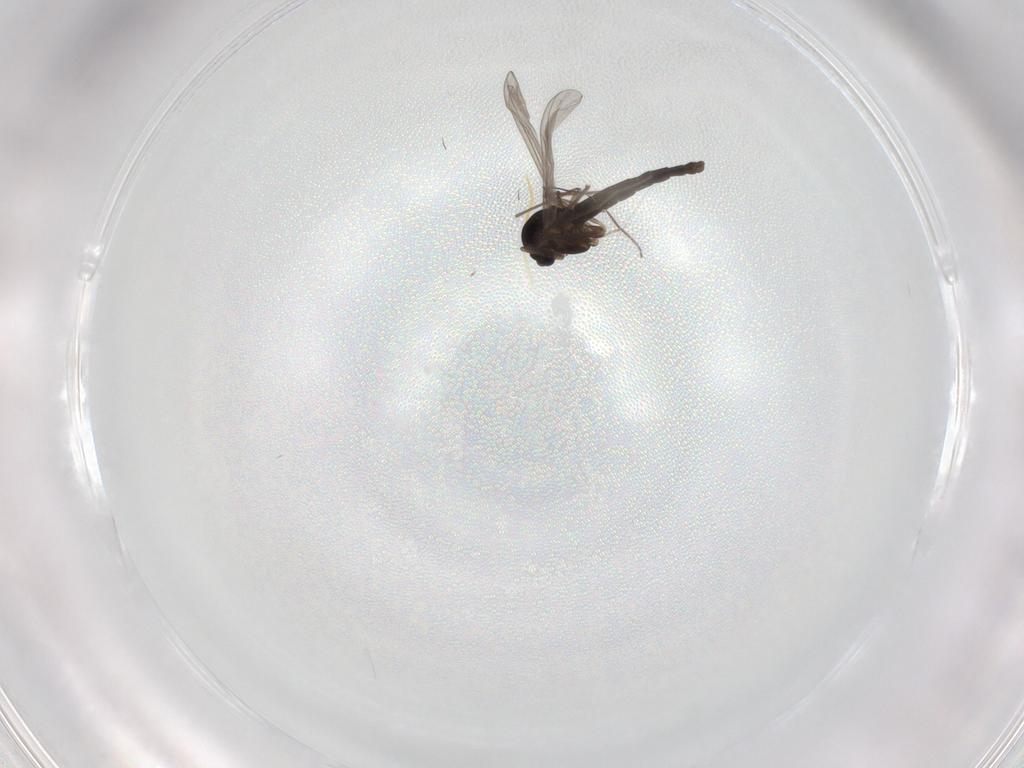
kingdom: Animalia
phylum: Arthropoda
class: Insecta
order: Diptera
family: Chironomidae
